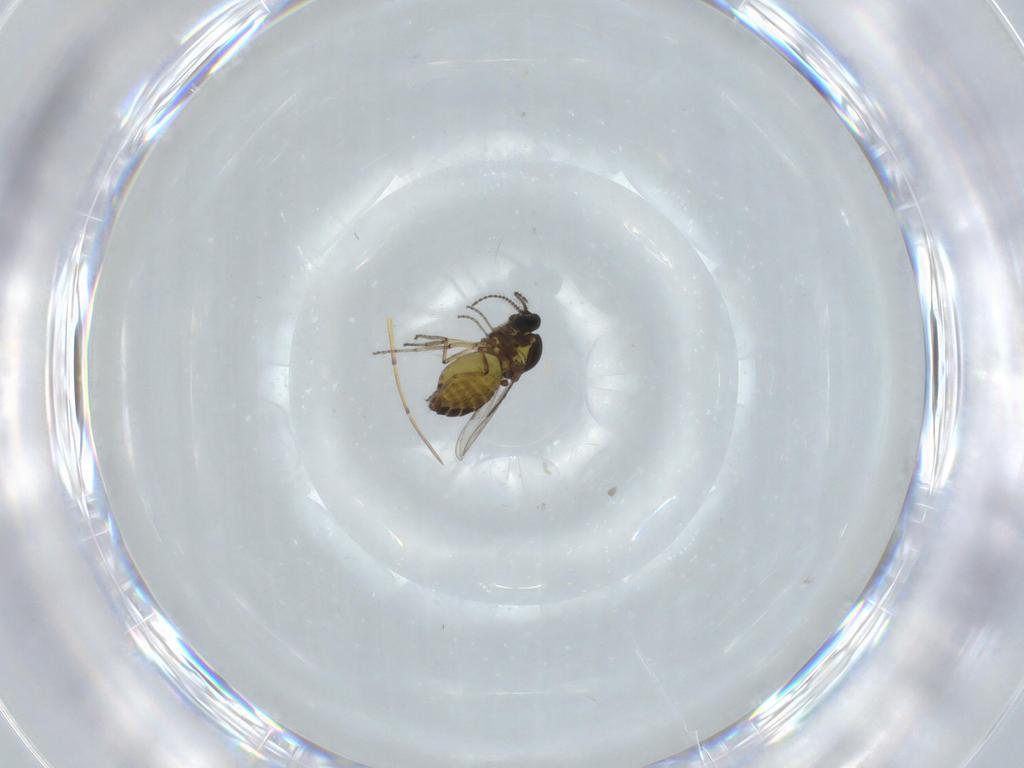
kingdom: Animalia
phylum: Arthropoda
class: Insecta
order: Diptera
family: Ceratopogonidae
